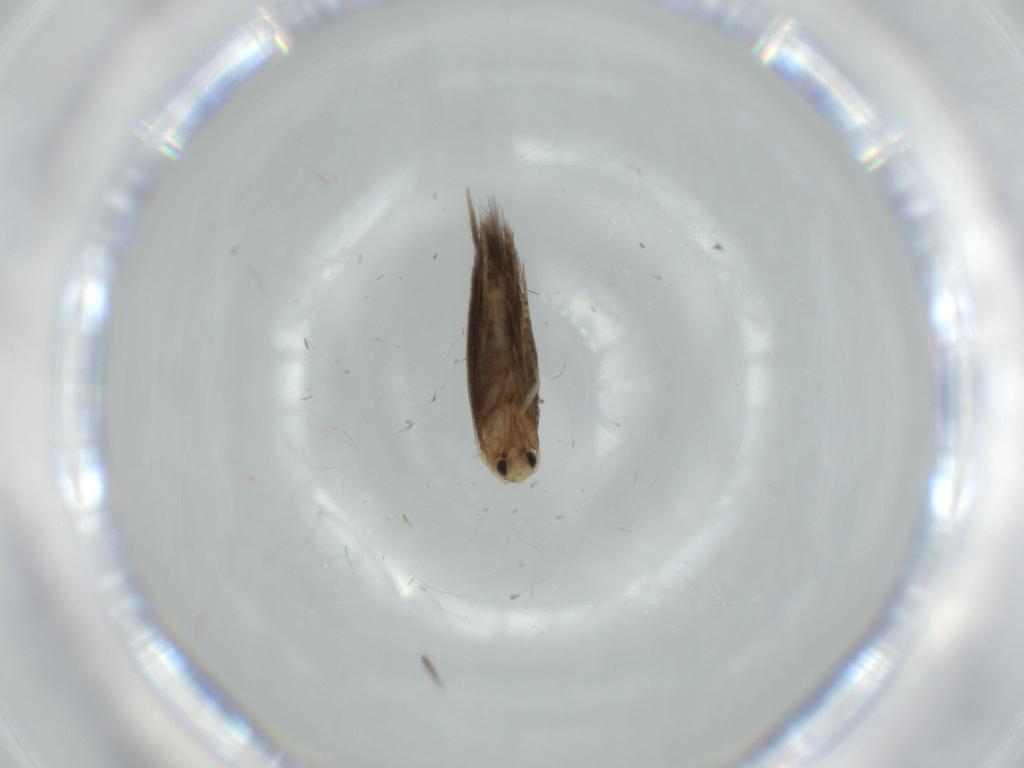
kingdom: Animalia
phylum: Arthropoda
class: Insecta
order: Lepidoptera
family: Bucculatricidae
